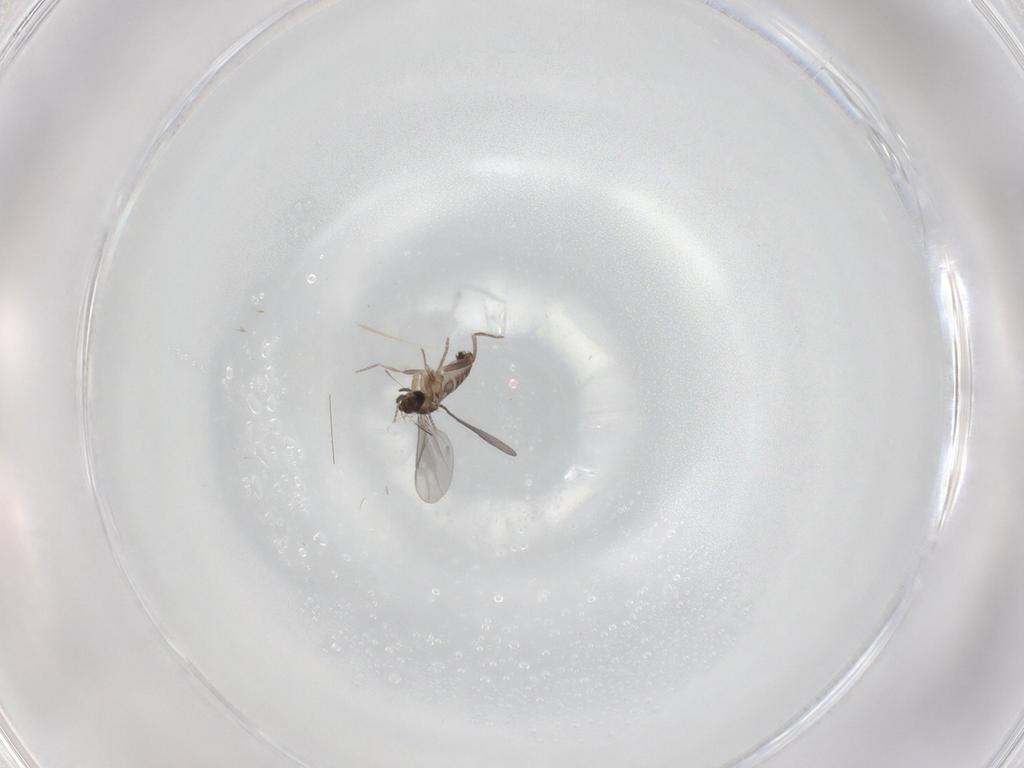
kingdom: Animalia
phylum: Arthropoda
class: Insecta
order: Diptera
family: Chironomidae
